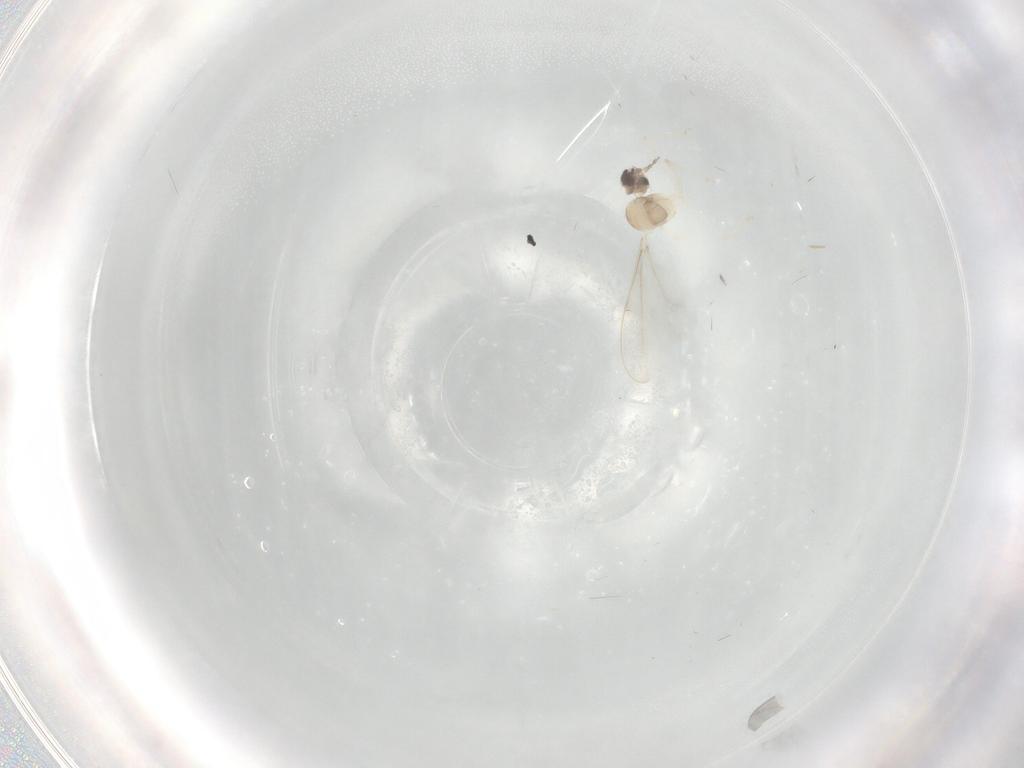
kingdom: Animalia
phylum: Arthropoda
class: Insecta
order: Diptera
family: Cecidomyiidae
